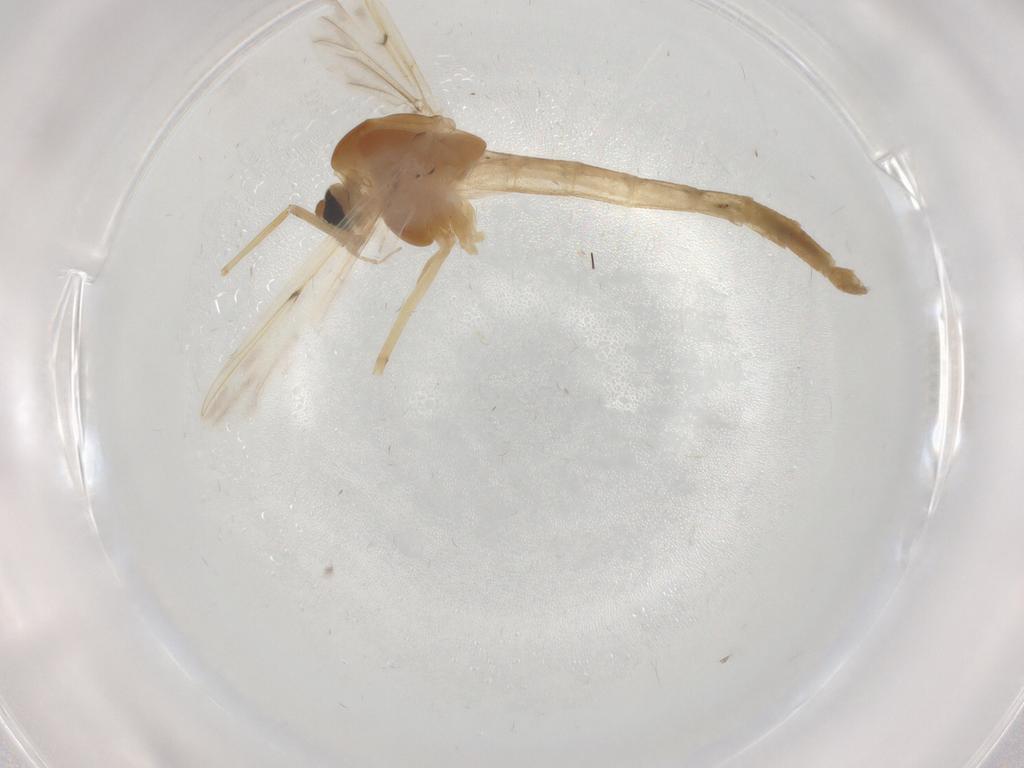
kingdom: Animalia
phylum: Arthropoda
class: Insecta
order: Diptera
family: Chironomidae
